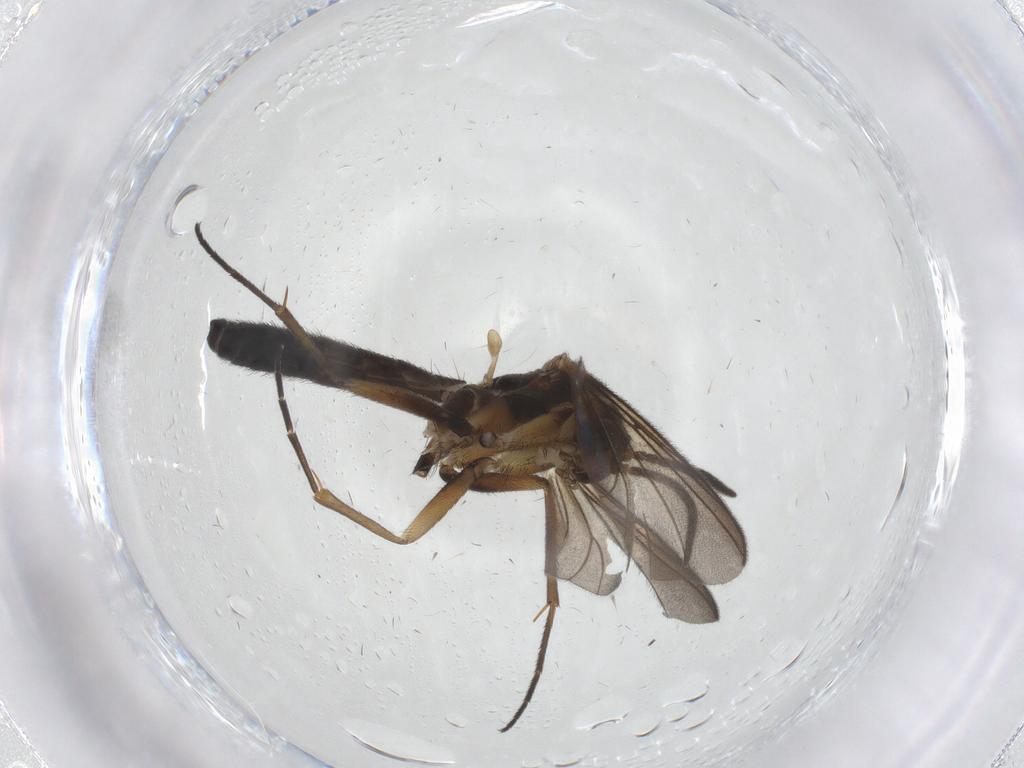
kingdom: Animalia
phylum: Arthropoda
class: Insecta
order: Diptera
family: Mycetophilidae
